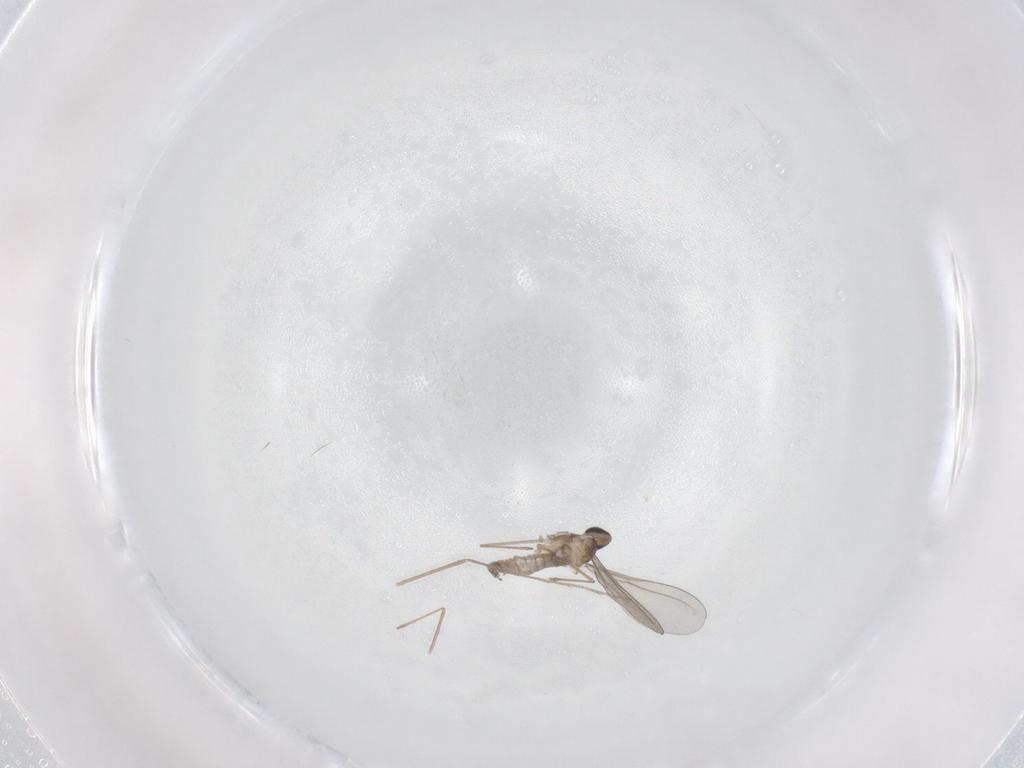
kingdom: Animalia
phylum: Arthropoda
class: Insecta
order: Diptera
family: Cecidomyiidae
